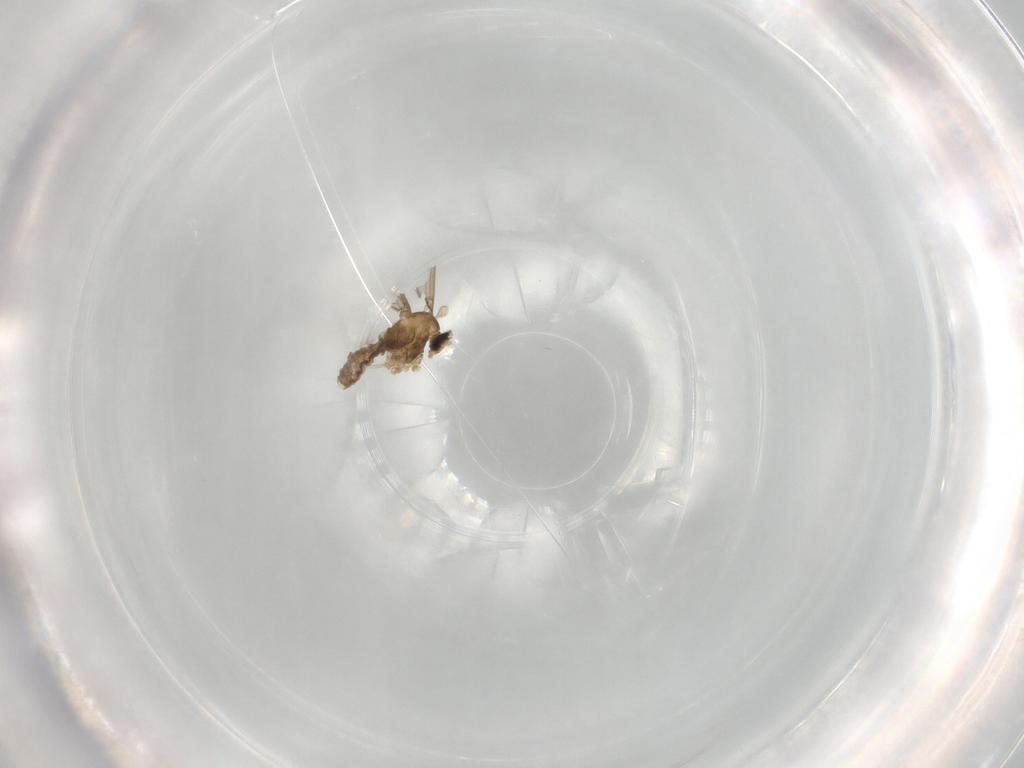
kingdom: Animalia
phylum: Arthropoda
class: Insecta
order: Diptera
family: Cecidomyiidae
